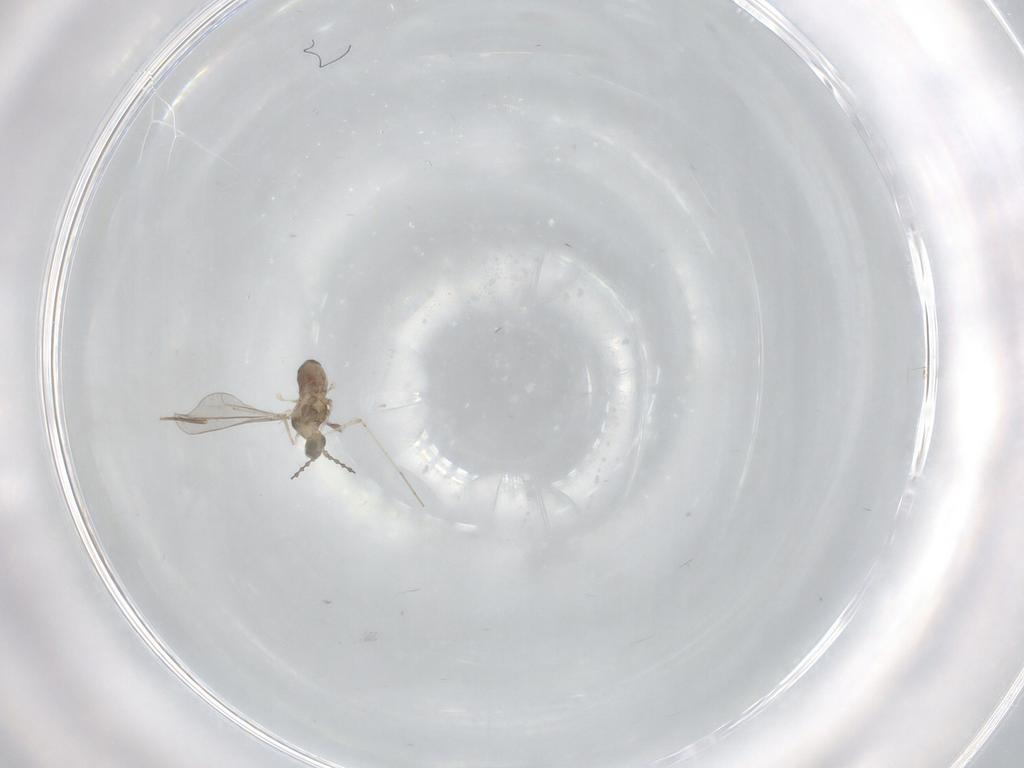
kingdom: Animalia
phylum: Arthropoda
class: Insecta
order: Diptera
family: Cecidomyiidae
